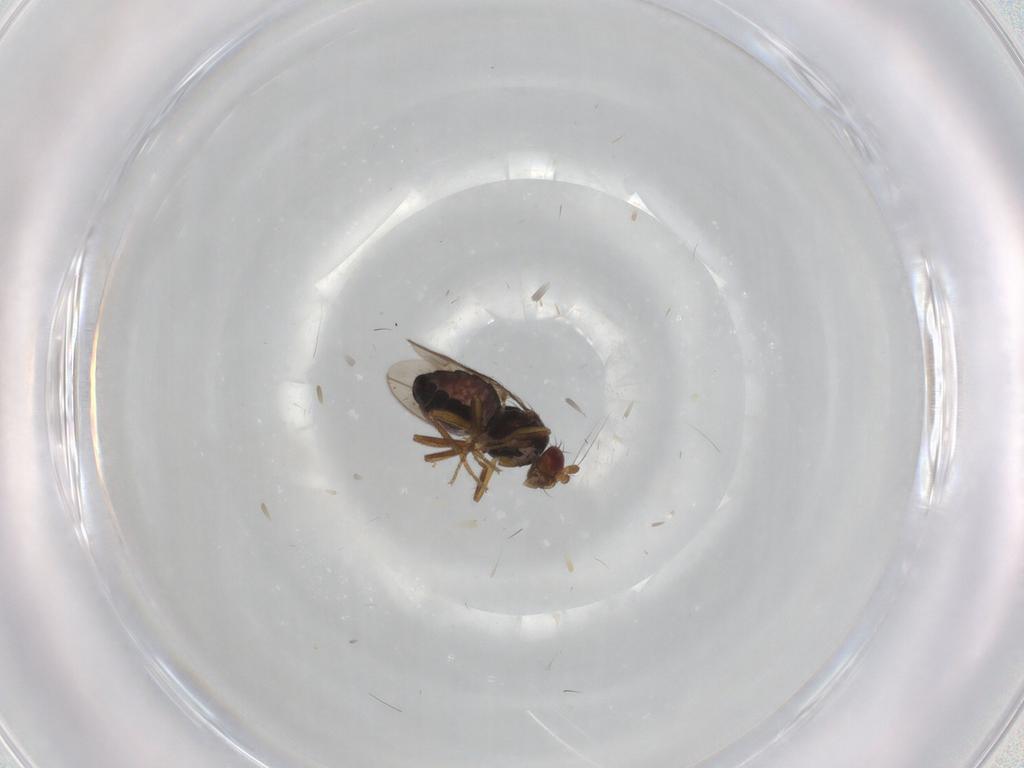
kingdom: Animalia
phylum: Arthropoda
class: Insecta
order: Diptera
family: Sphaeroceridae
